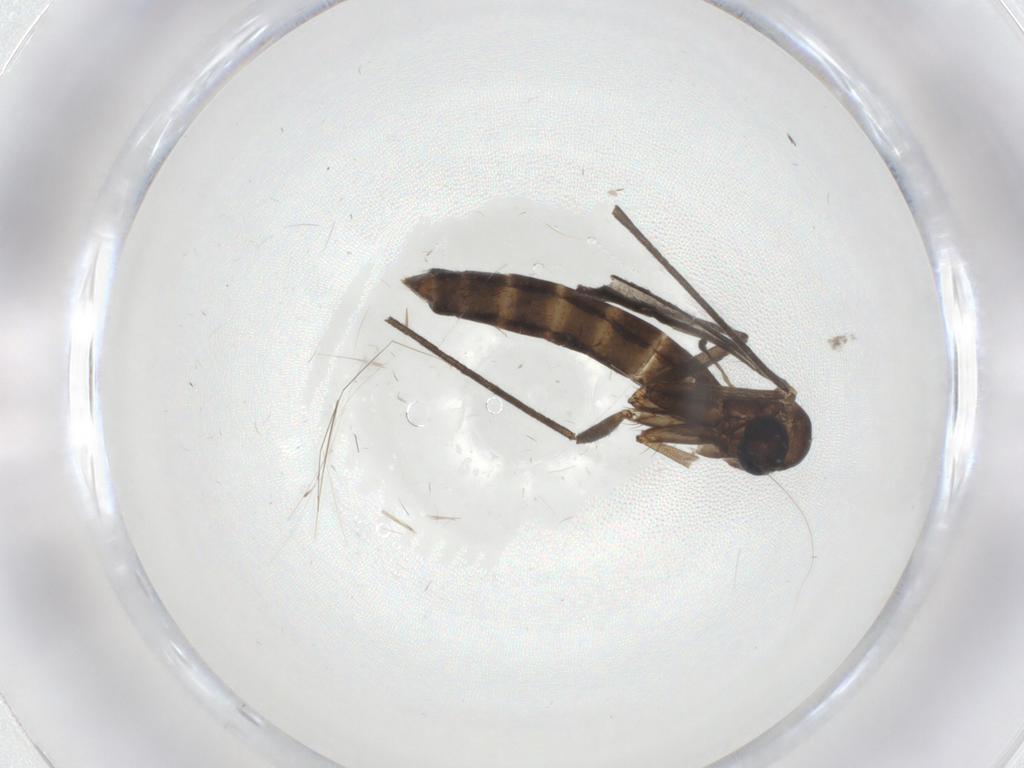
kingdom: Animalia
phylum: Arthropoda
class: Insecta
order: Diptera
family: Keroplatidae
